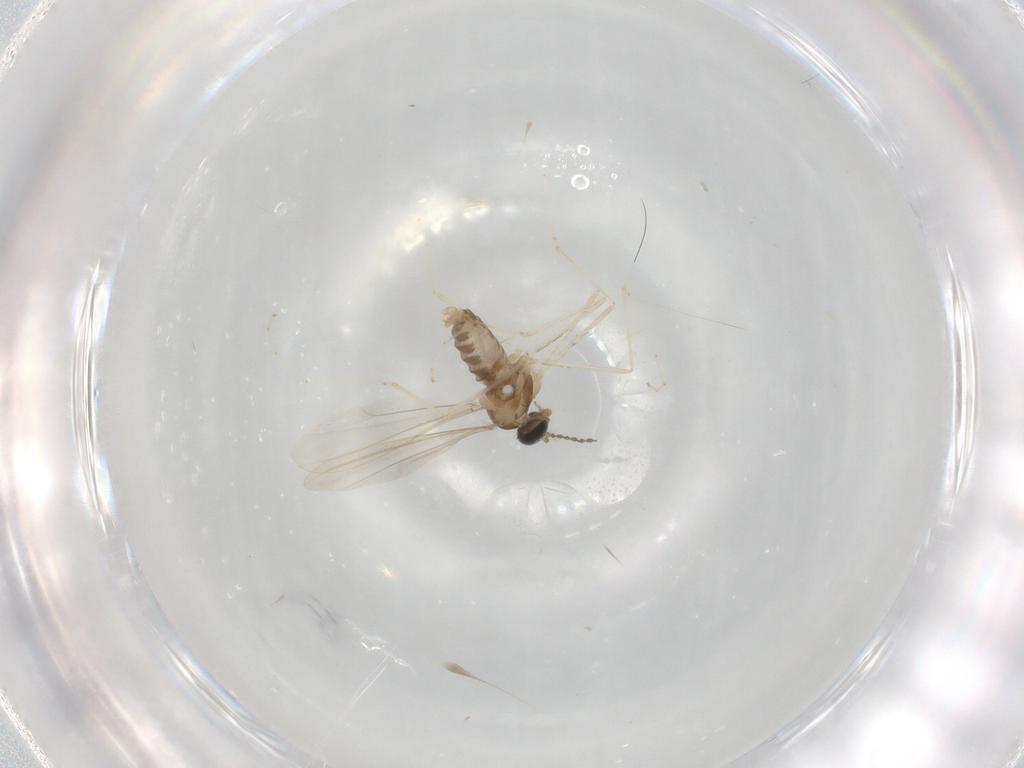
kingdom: Animalia
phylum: Arthropoda
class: Insecta
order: Diptera
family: Cecidomyiidae
